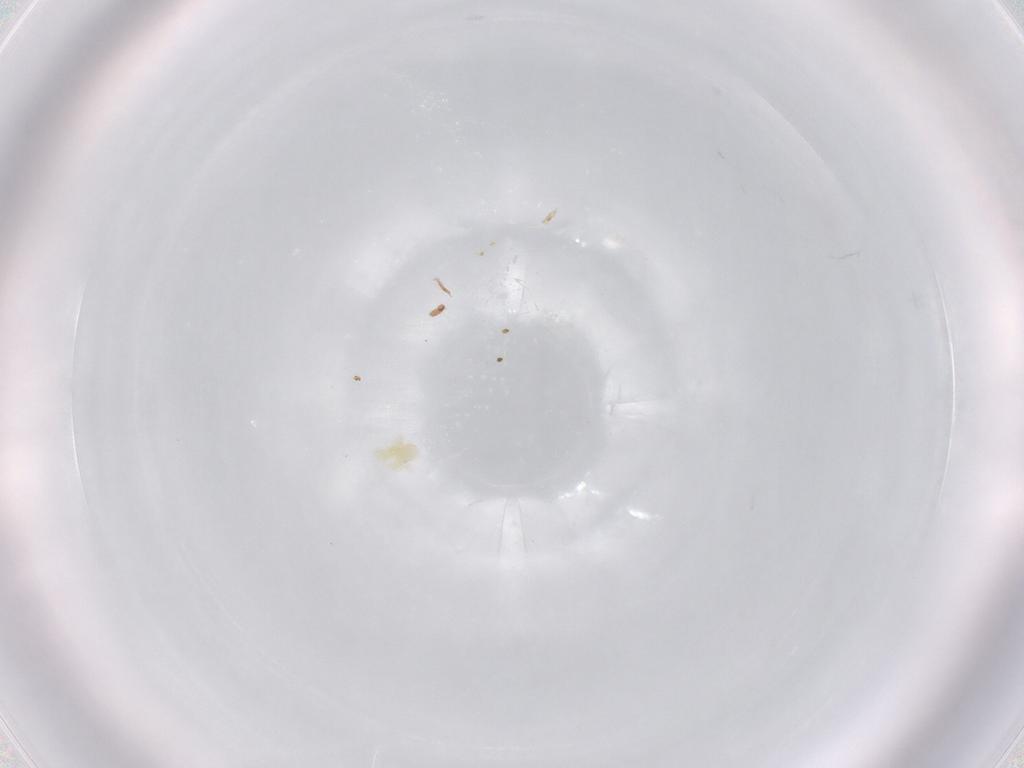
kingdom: Animalia
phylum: Arthropoda
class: Arachnida
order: Trombidiformes
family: Eupodidae
